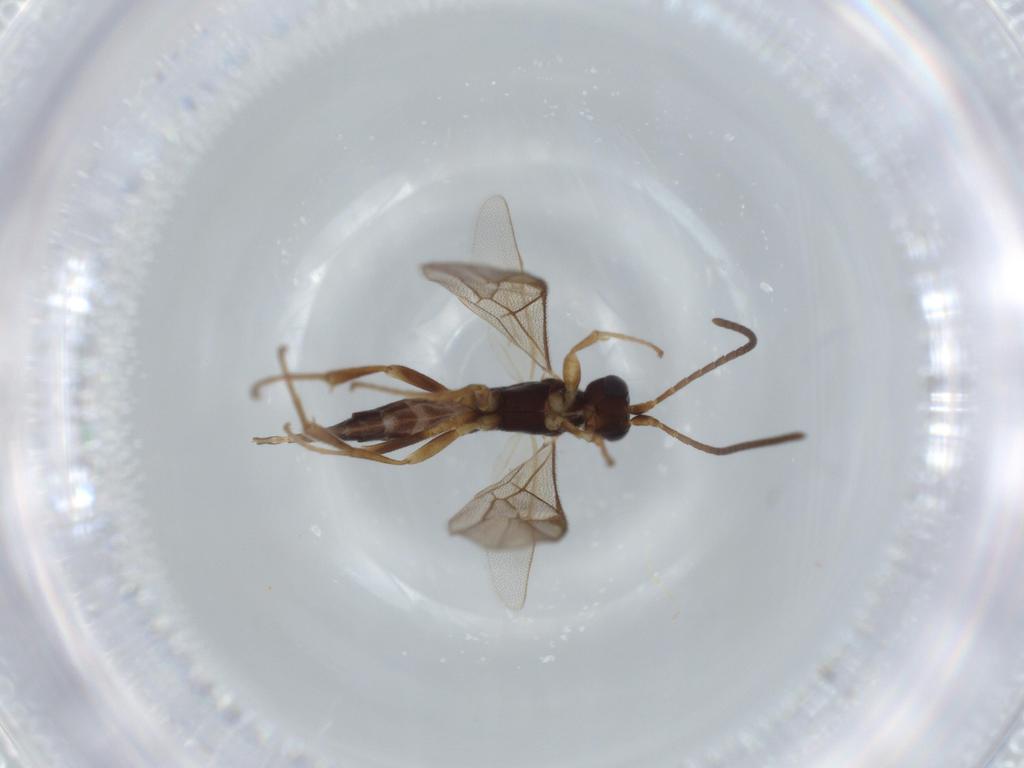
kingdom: Animalia
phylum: Arthropoda
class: Insecta
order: Hymenoptera
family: Ichneumonidae
